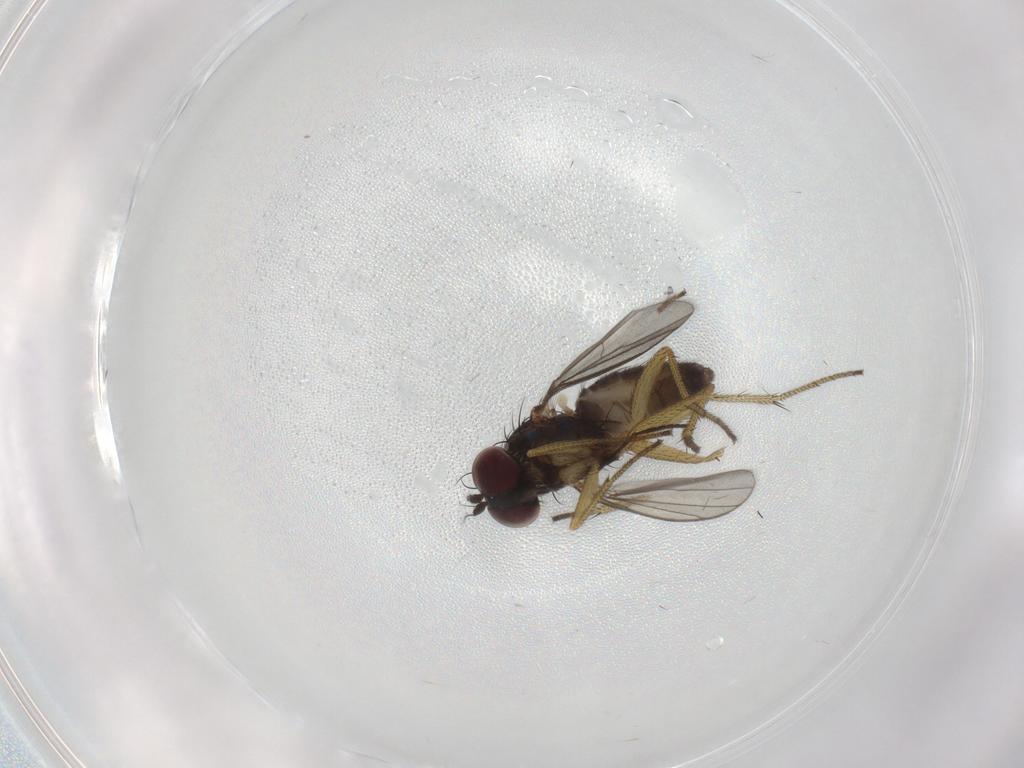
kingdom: Animalia
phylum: Arthropoda
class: Insecta
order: Diptera
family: Dolichopodidae
